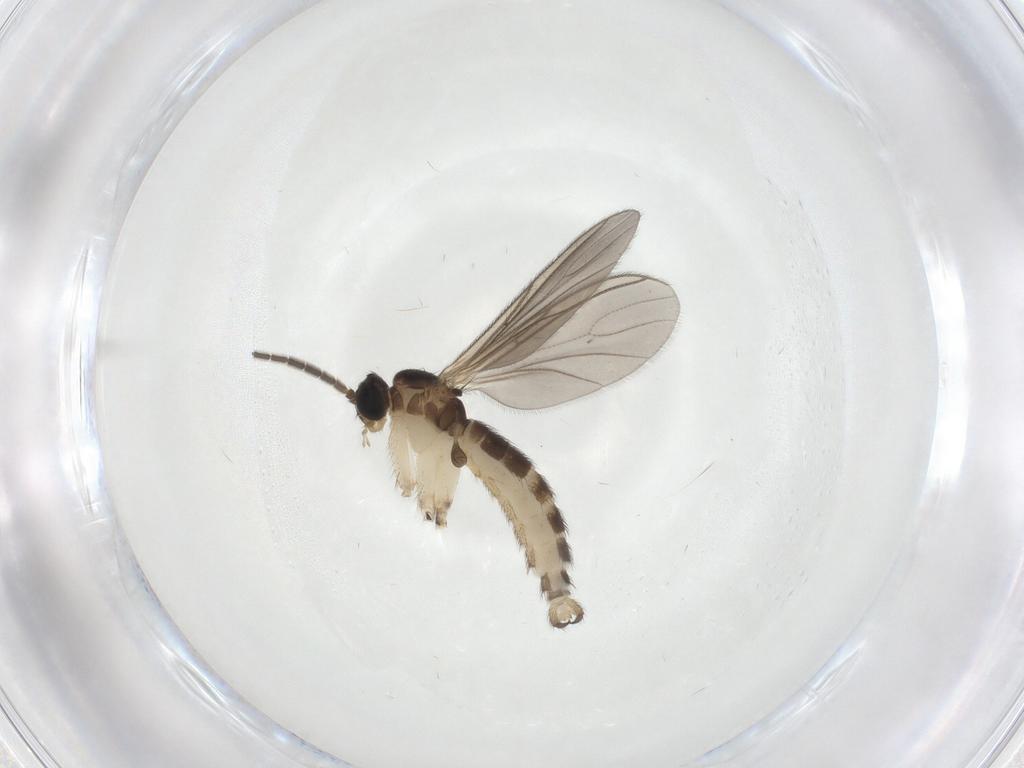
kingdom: Animalia
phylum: Arthropoda
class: Insecta
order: Diptera
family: Sciaridae
